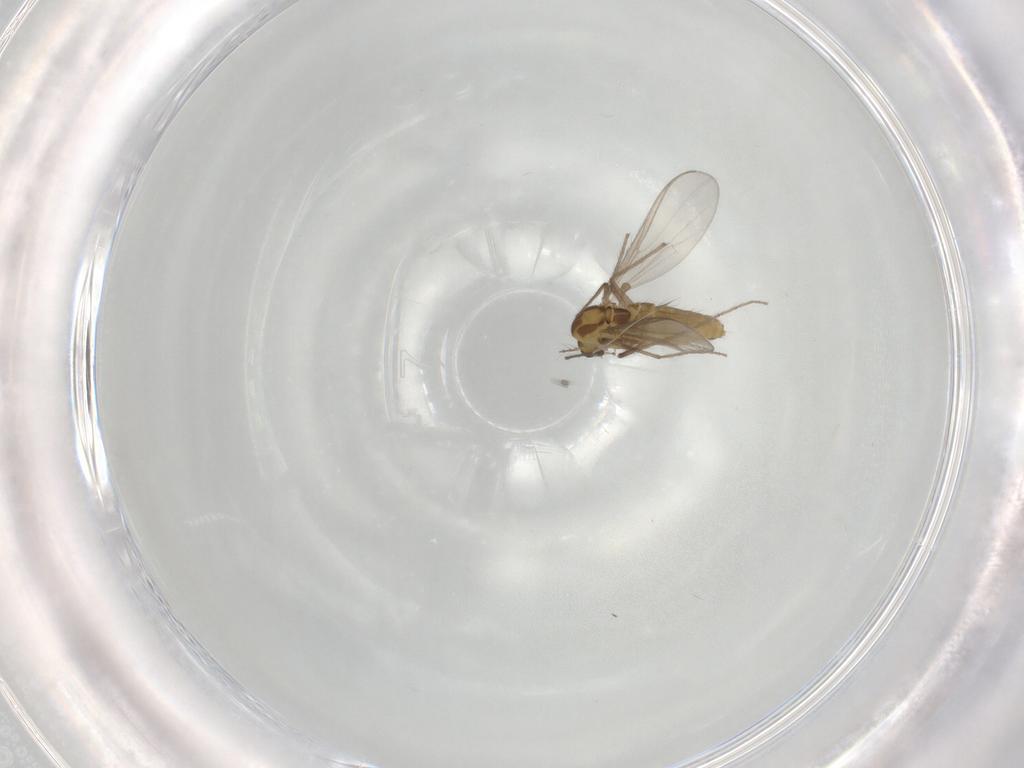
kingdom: Animalia
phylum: Arthropoda
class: Insecta
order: Diptera
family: Chironomidae
